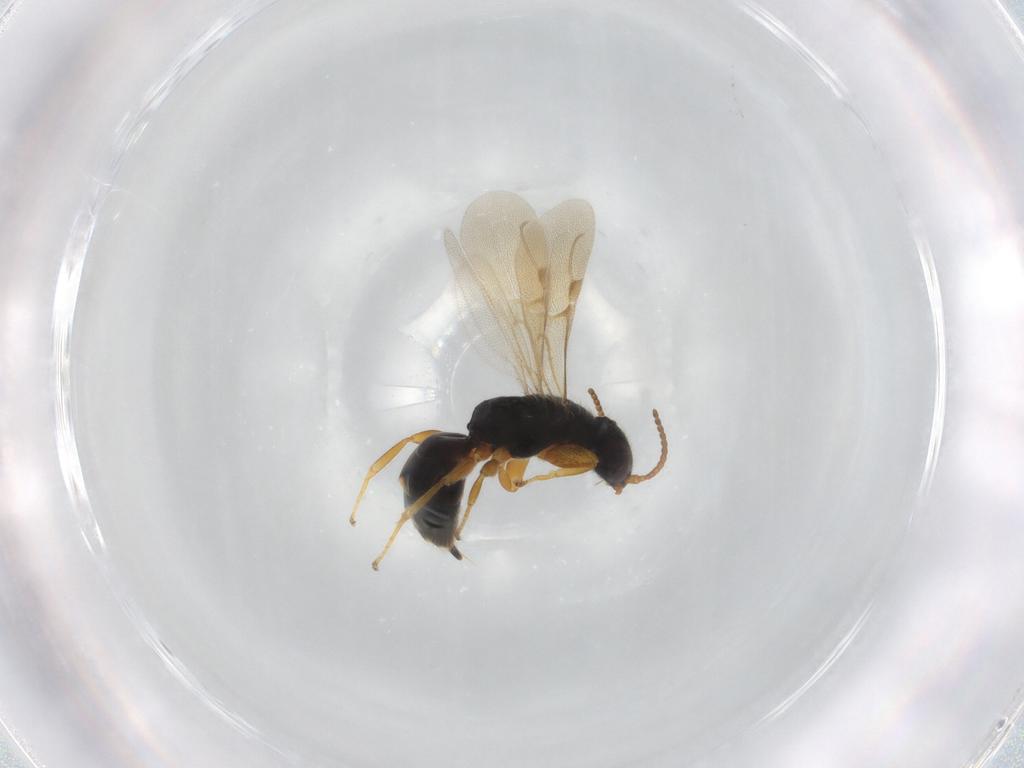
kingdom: Animalia
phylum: Arthropoda
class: Insecta
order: Hymenoptera
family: Bethylidae
